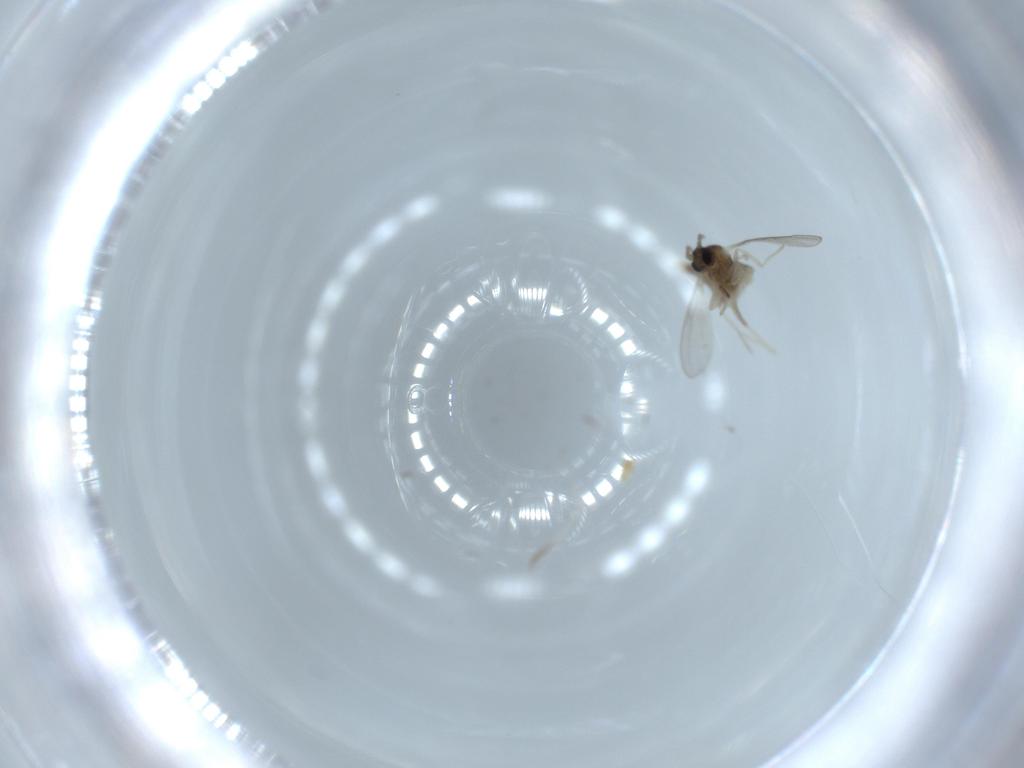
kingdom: Animalia
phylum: Arthropoda
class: Insecta
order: Diptera
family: Cecidomyiidae
